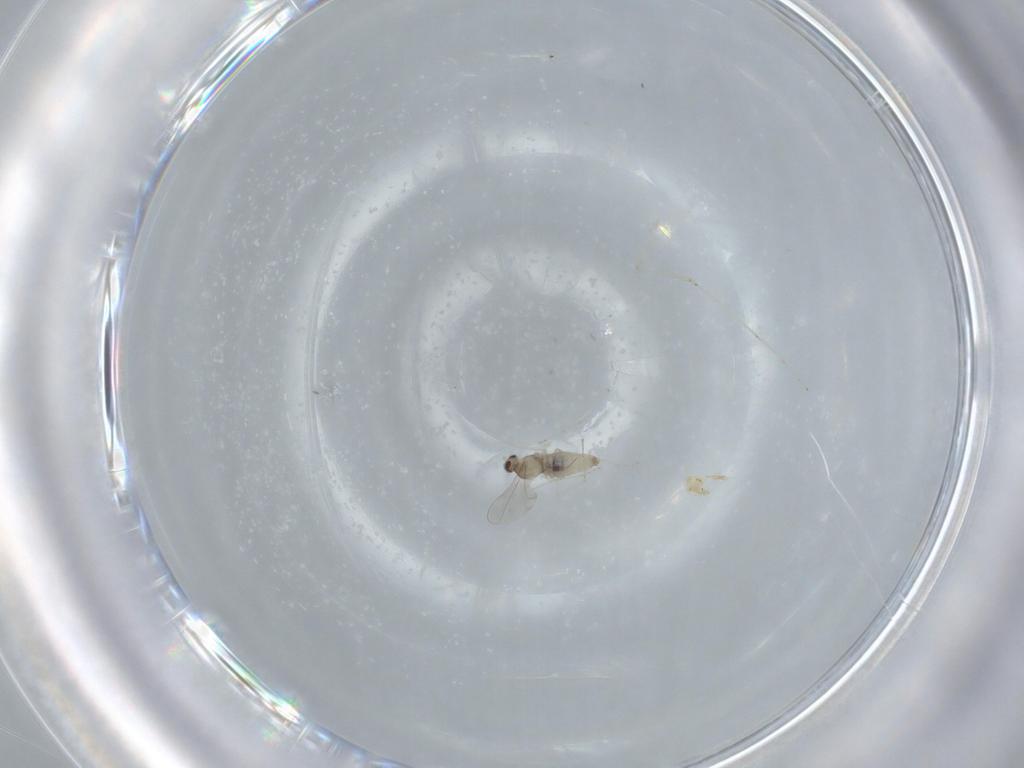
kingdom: Animalia
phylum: Arthropoda
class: Insecta
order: Diptera
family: Cecidomyiidae
